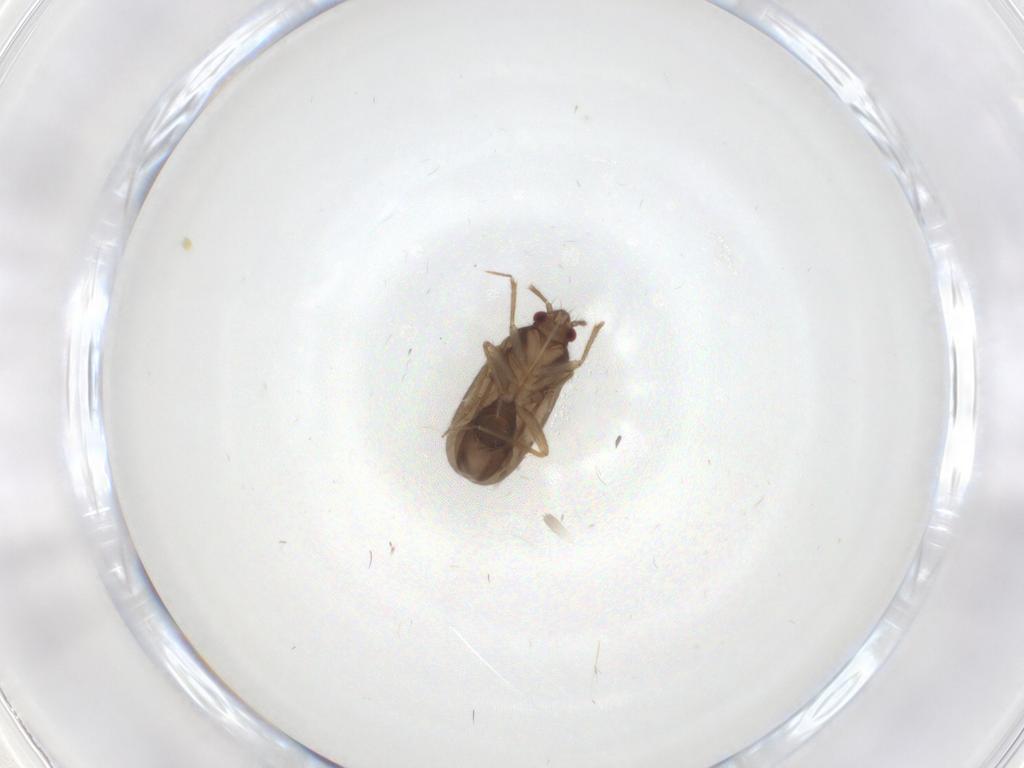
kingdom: Animalia
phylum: Arthropoda
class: Insecta
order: Hemiptera
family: Ceratocombidae
